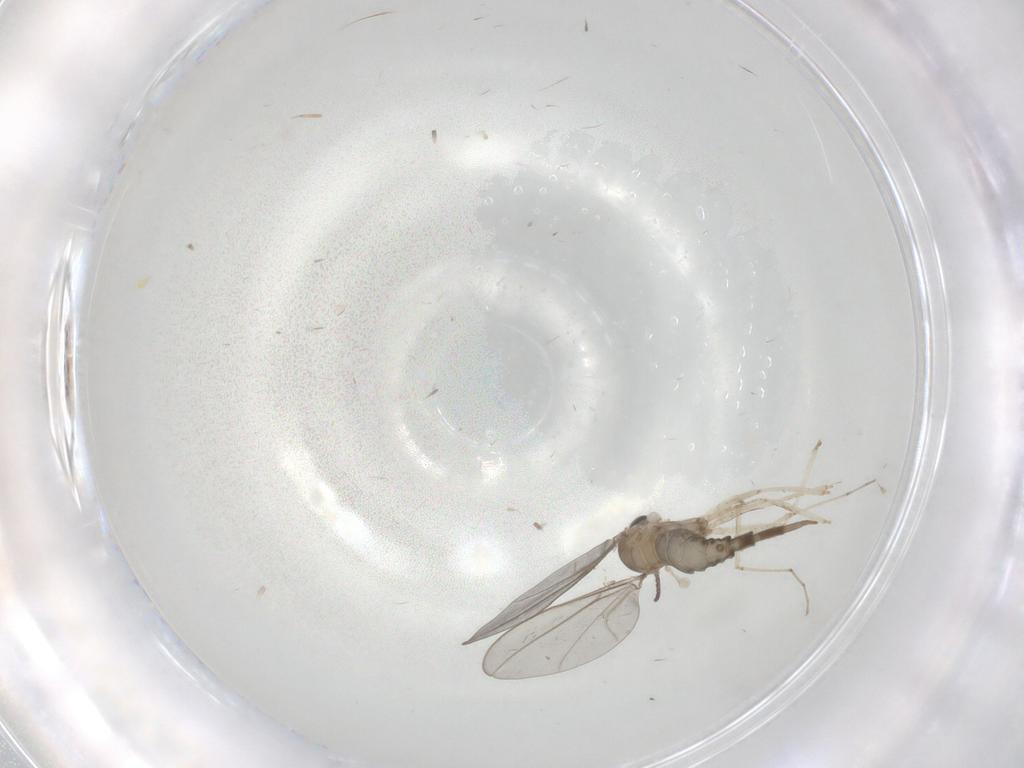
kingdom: Animalia
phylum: Arthropoda
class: Insecta
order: Diptera
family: Cecidomyiidae
